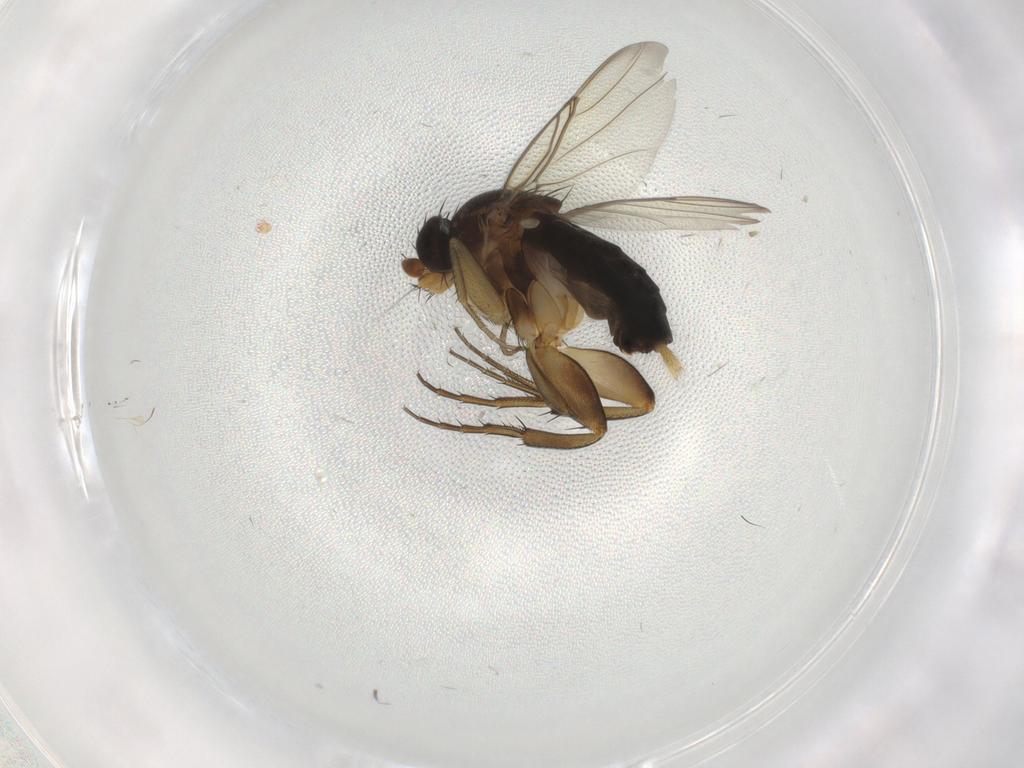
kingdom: Animalia
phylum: Arthropoda
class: Insecta
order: Diptera
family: Phoridae
